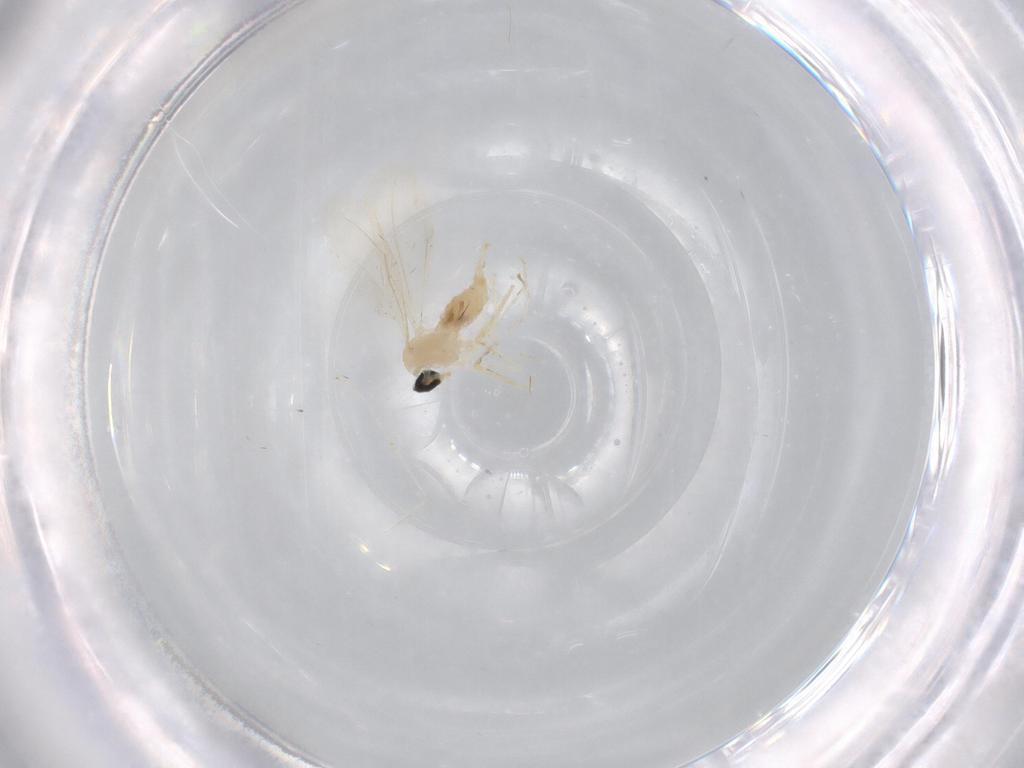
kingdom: Animalia
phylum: Arthropoda
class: Insecta
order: Diptera
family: Cecidomyiidae
